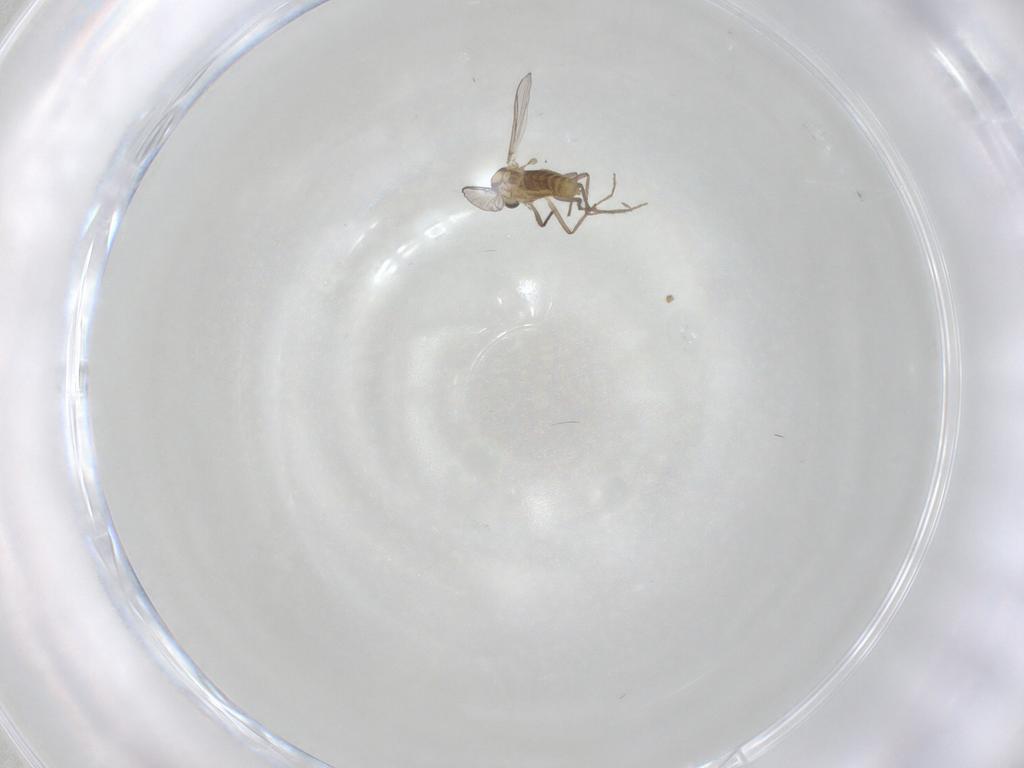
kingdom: Animalia
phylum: Arthropoda
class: Insecta
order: Diptera
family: Chironomidae
